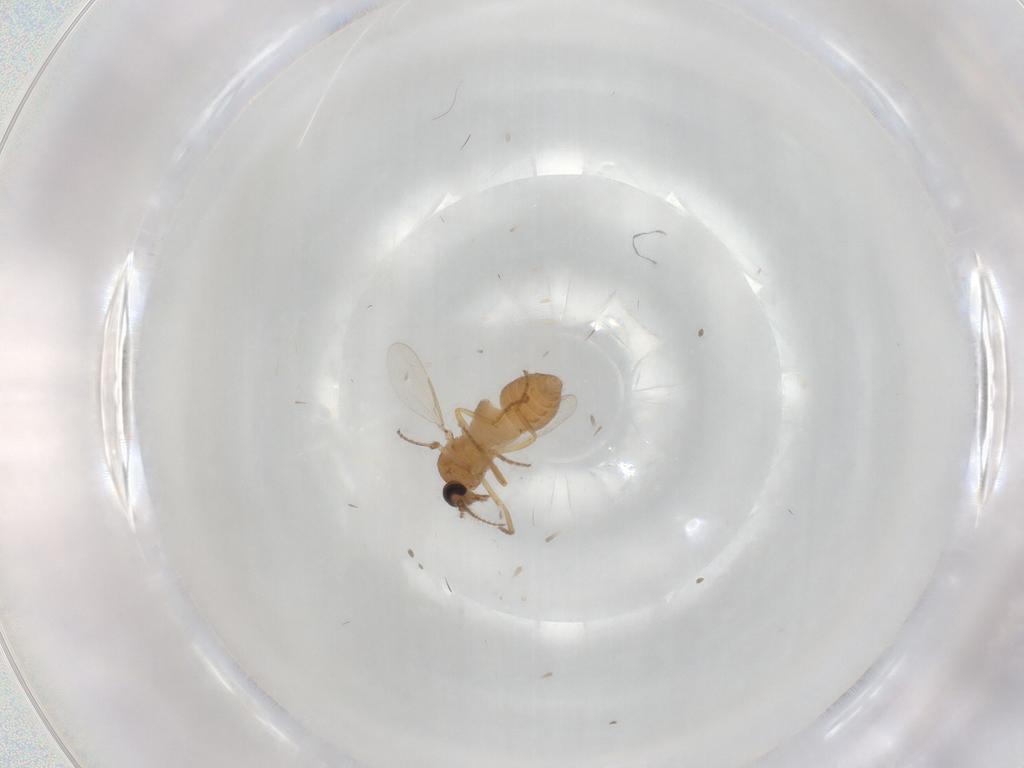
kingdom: Animalia
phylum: Arthropoda
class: Insecta
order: Diptera
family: Ceratopogonidae
